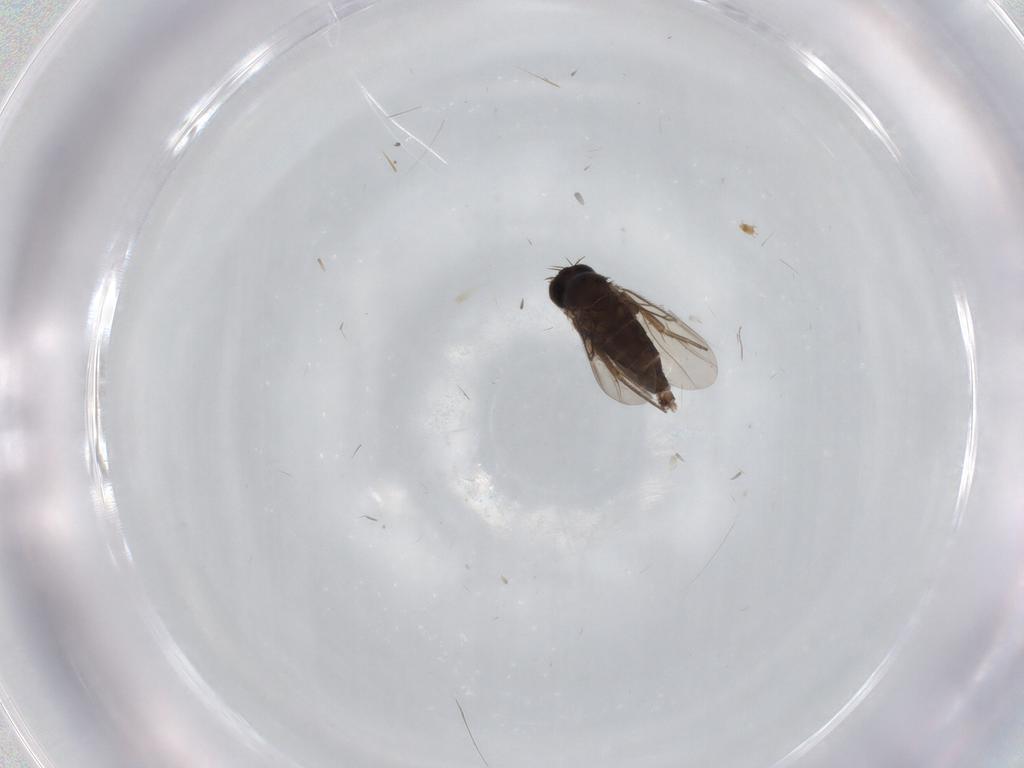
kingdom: Animalia
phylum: Arthropoda
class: Insecta
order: Diptera
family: Phoridae
